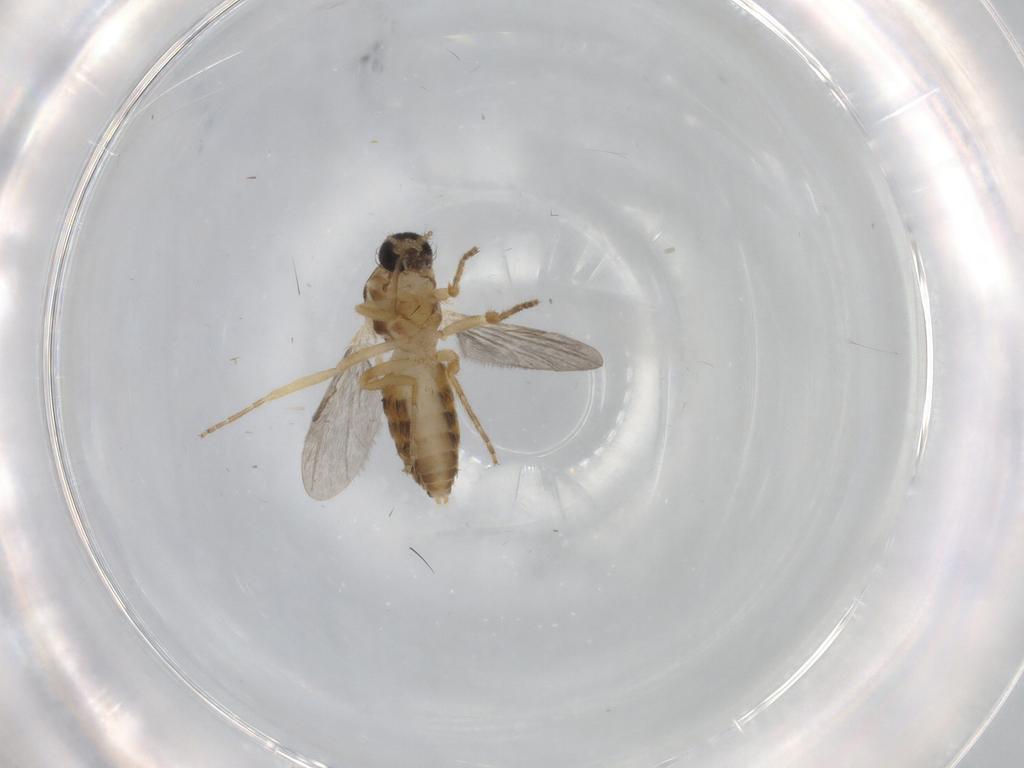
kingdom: Animalia
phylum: Arthropoda
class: Insecta
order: Diptera
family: Ceratopogonidae
